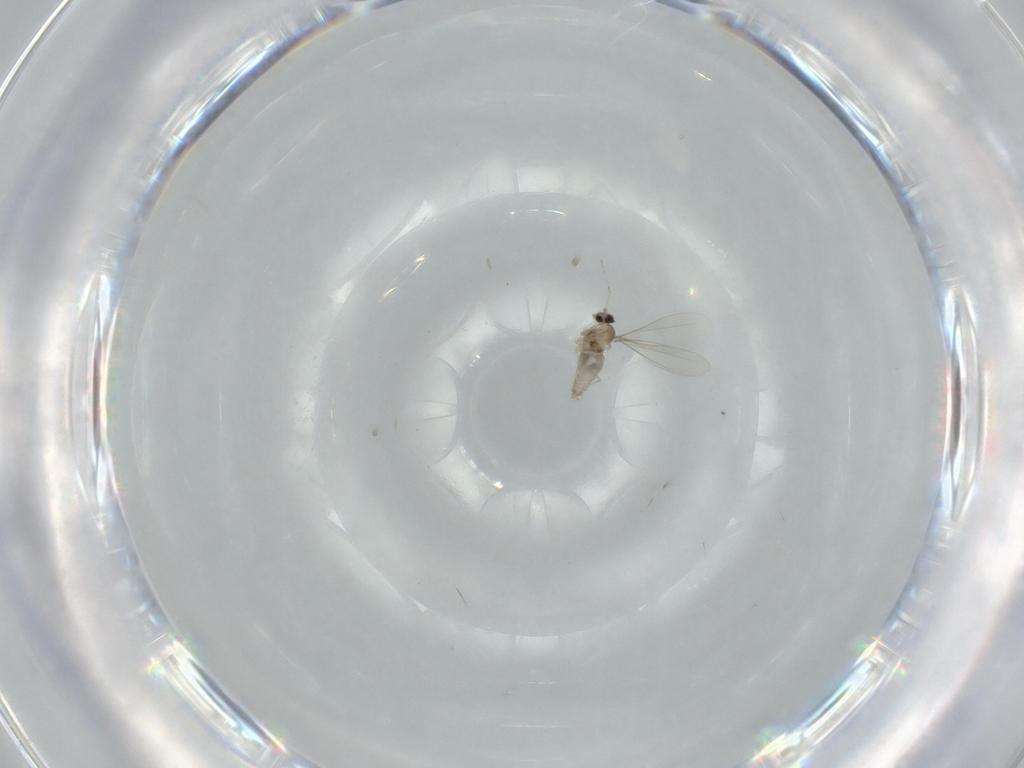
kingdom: Animalia
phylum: Arthropoda
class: Insecta
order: Diptera
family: Cecidomyiidae
